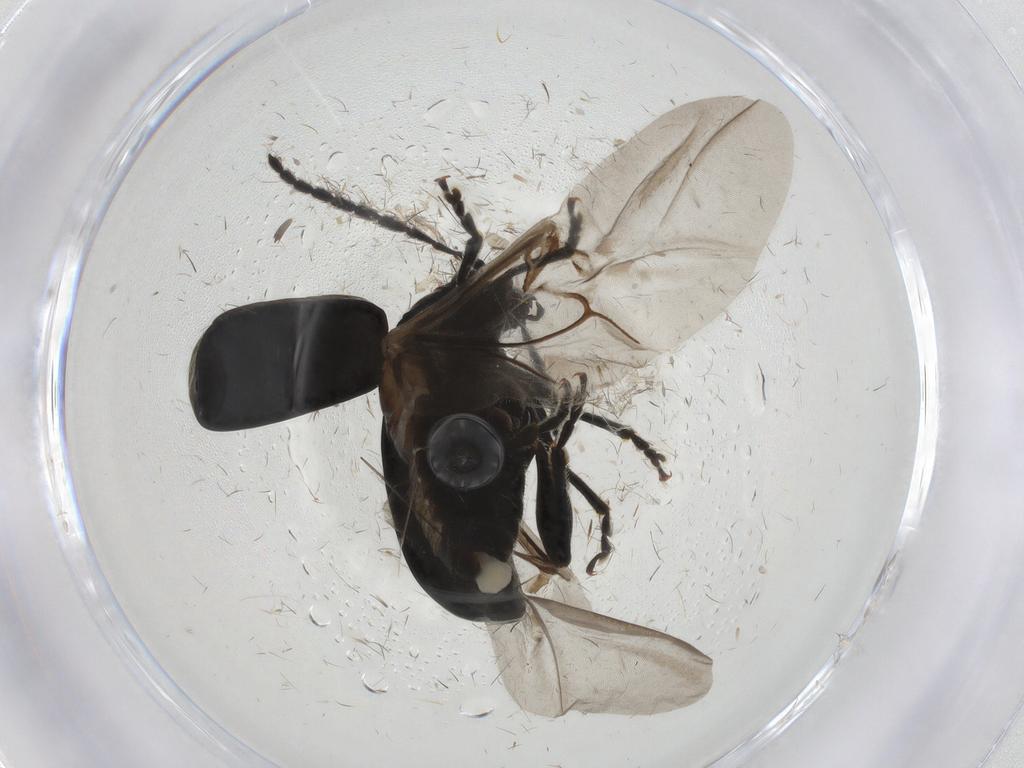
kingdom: Animalia
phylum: Arthropoda
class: Insecta
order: Coleoptera
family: Chrysomelidae
